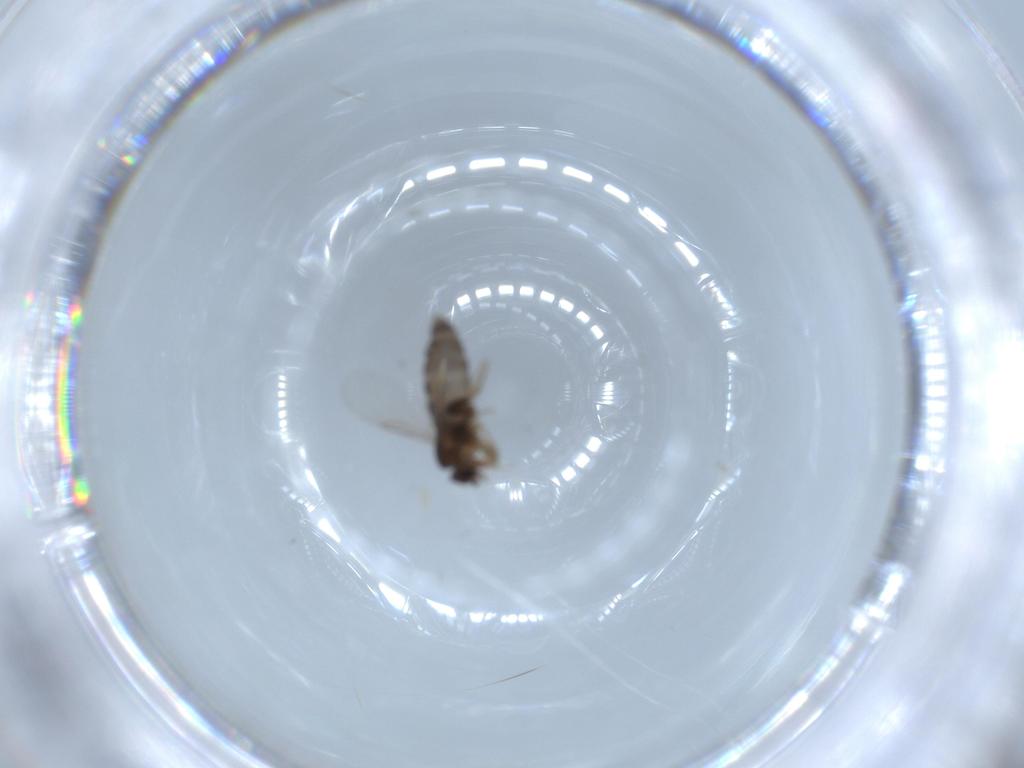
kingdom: Animalia
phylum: Arthropoda
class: Insecta
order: Diptera
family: Phoridae
